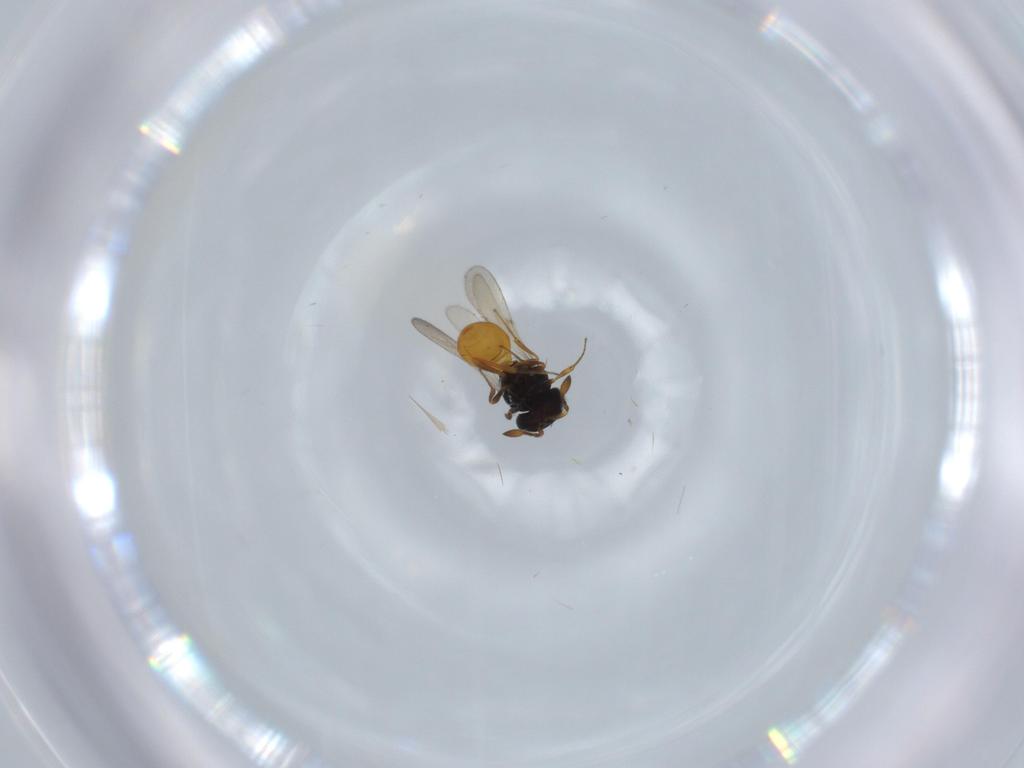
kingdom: Animalia
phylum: Arthropoda
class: Insecta
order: Hymenoptera
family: Scelionidae
